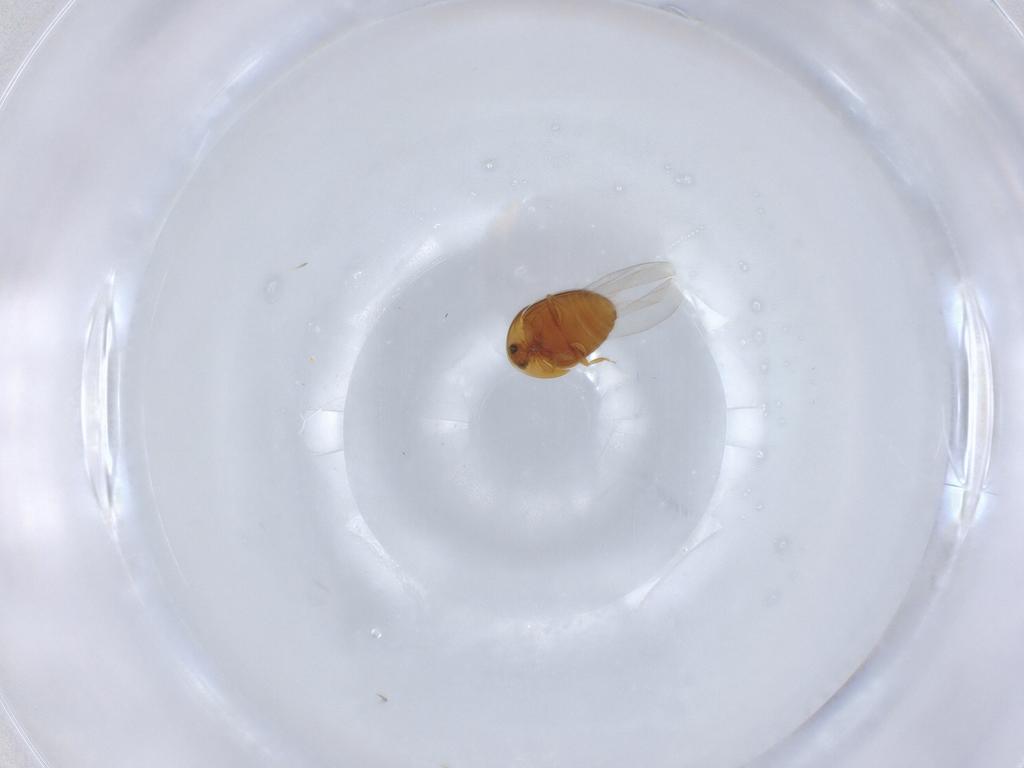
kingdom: Animalia
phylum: Arthropoda
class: Insecta
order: Coleoptera
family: Corylophidae
